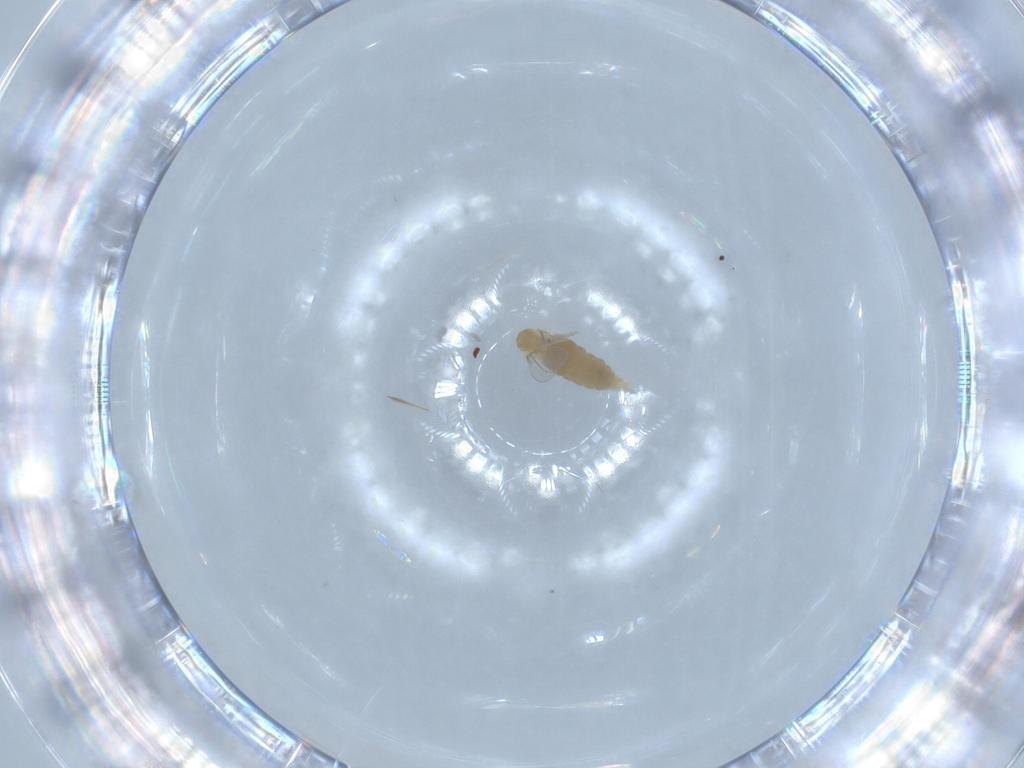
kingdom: Animalia
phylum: Arthropoda
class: Insecta
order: Diptera
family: Cecidomyiidae
